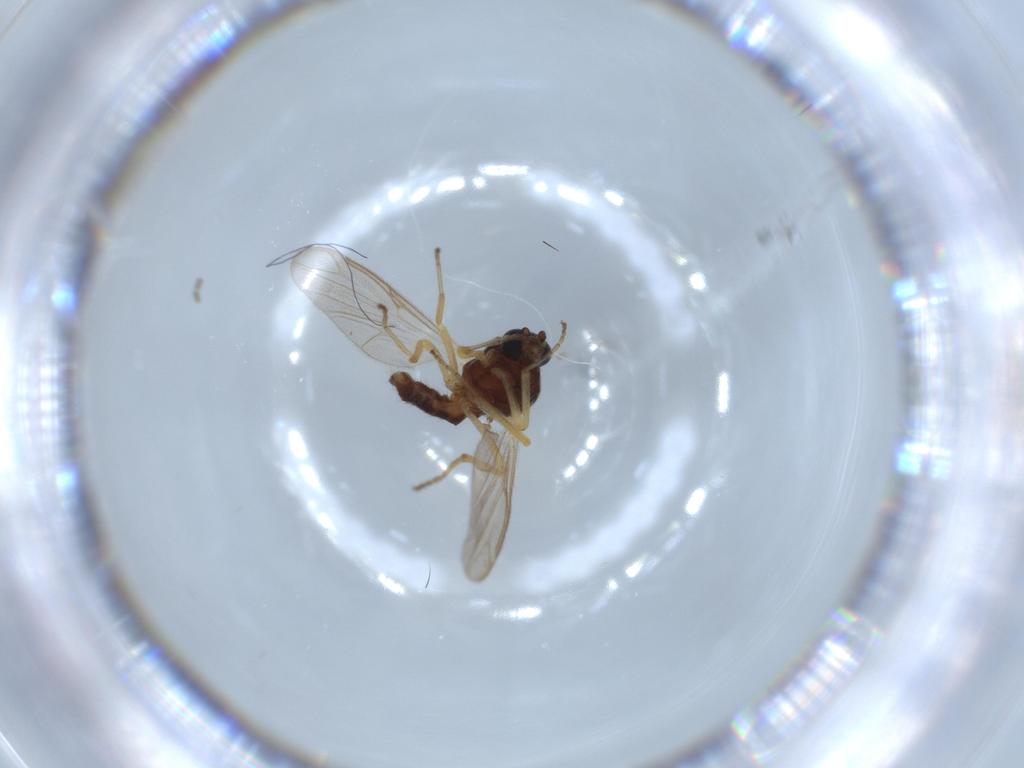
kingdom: Animalia
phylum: Arthropoda
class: Insecta
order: Diptera
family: Ceratopogonidae
